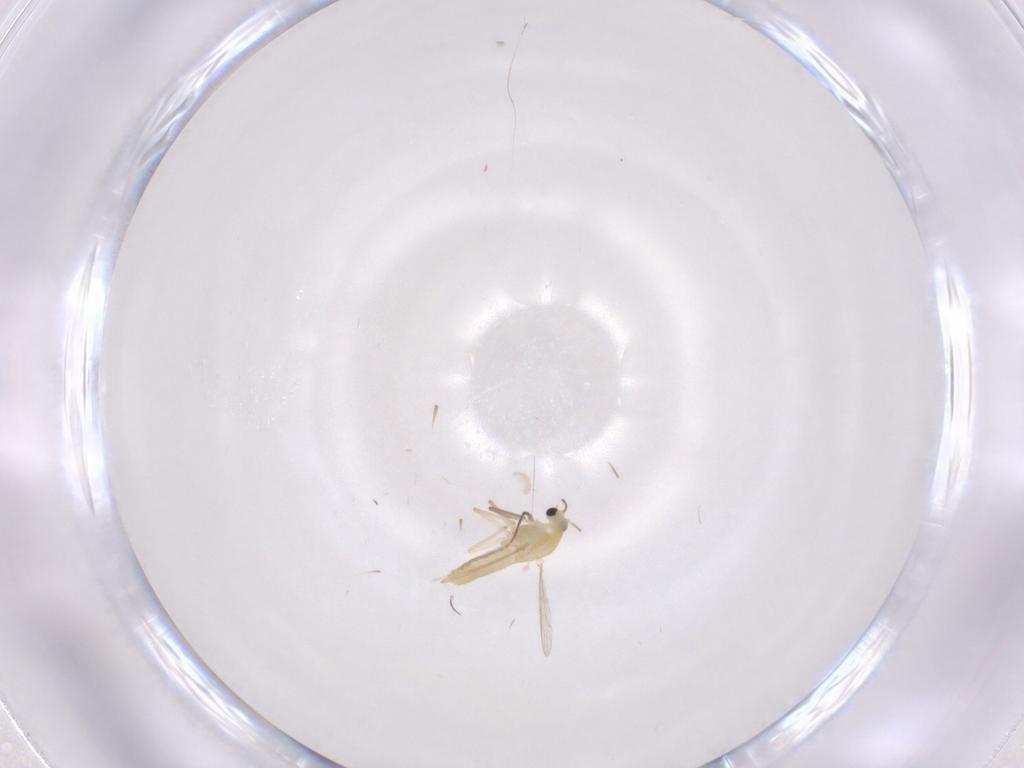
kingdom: Animalia
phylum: Arthropoda
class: Insecta
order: Diptera
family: Chironomidae
